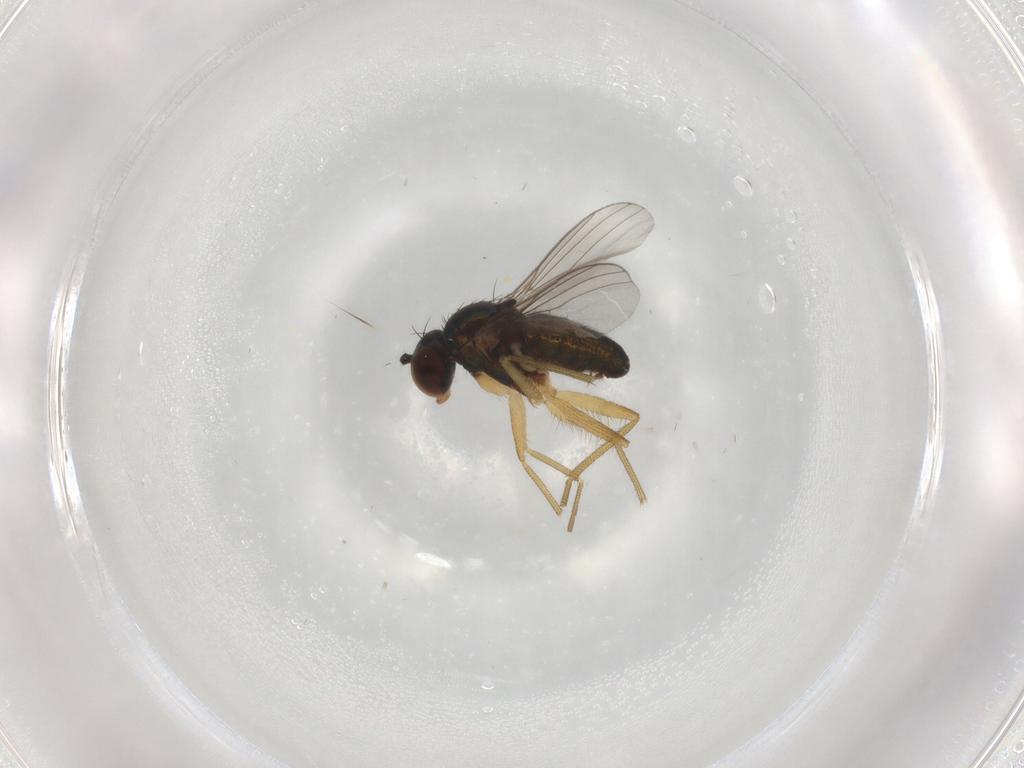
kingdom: Animalia
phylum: Arthropoda
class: Insecta
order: Diptera
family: Dolichopodidae
